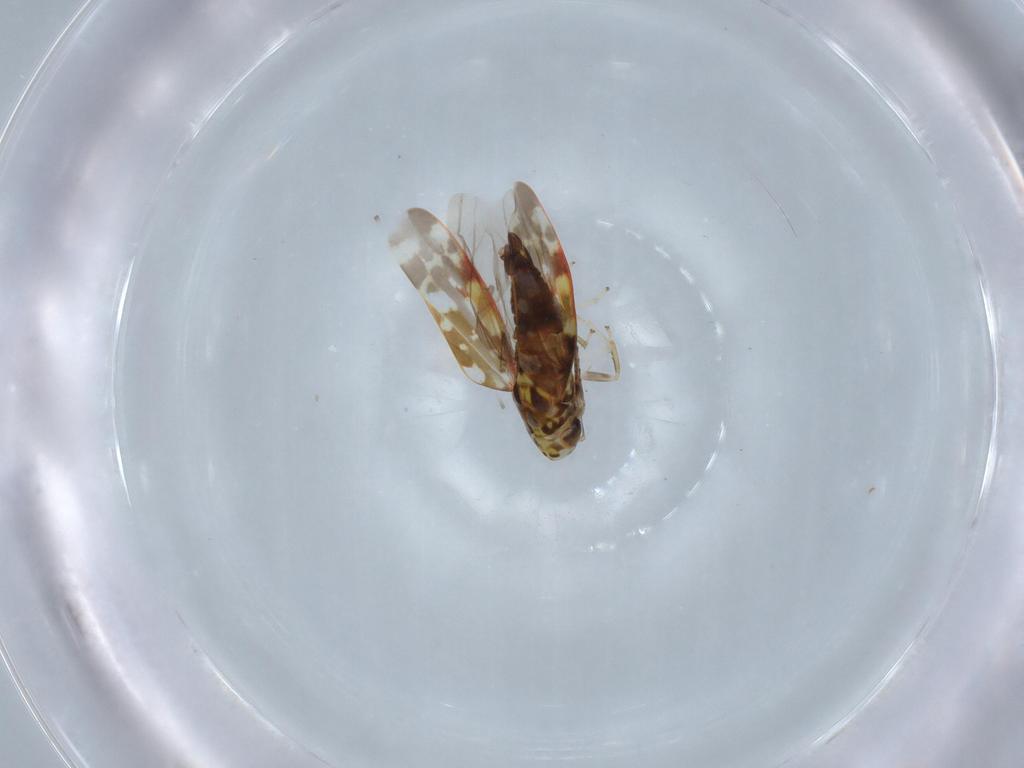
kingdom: Animalia
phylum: Arthropoda
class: Insecta
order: Hemiptera
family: Cicadellidae
